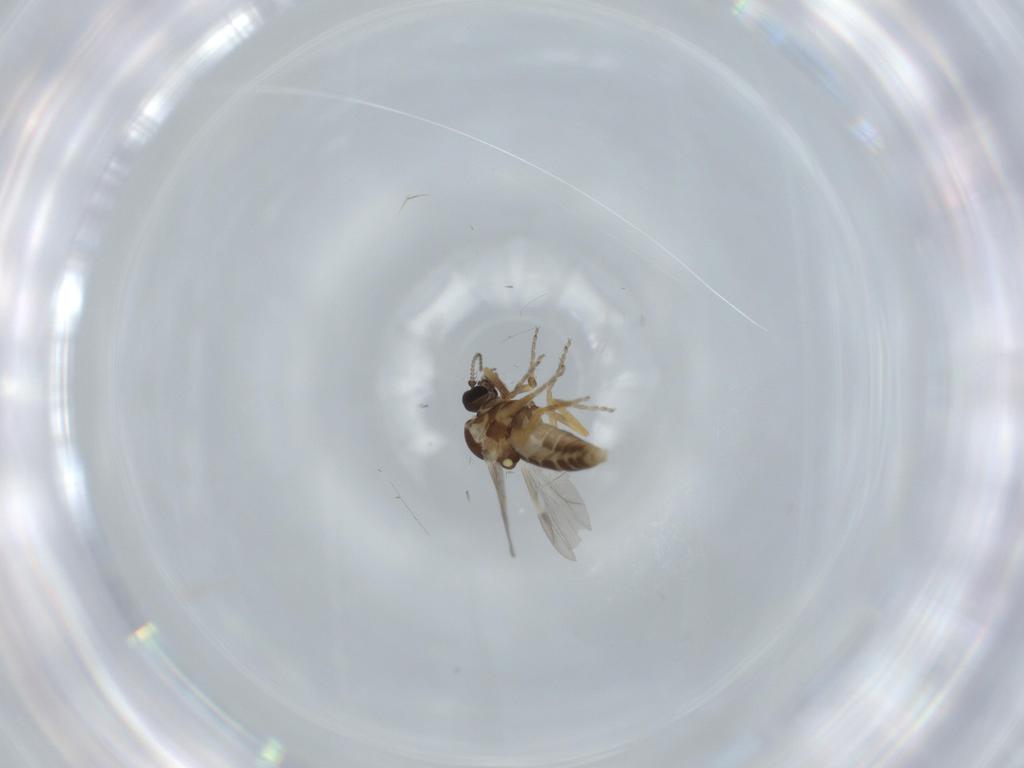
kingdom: Animalia
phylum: Arthropoda
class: Insecta
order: Diptera
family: Ceratopogonidae
